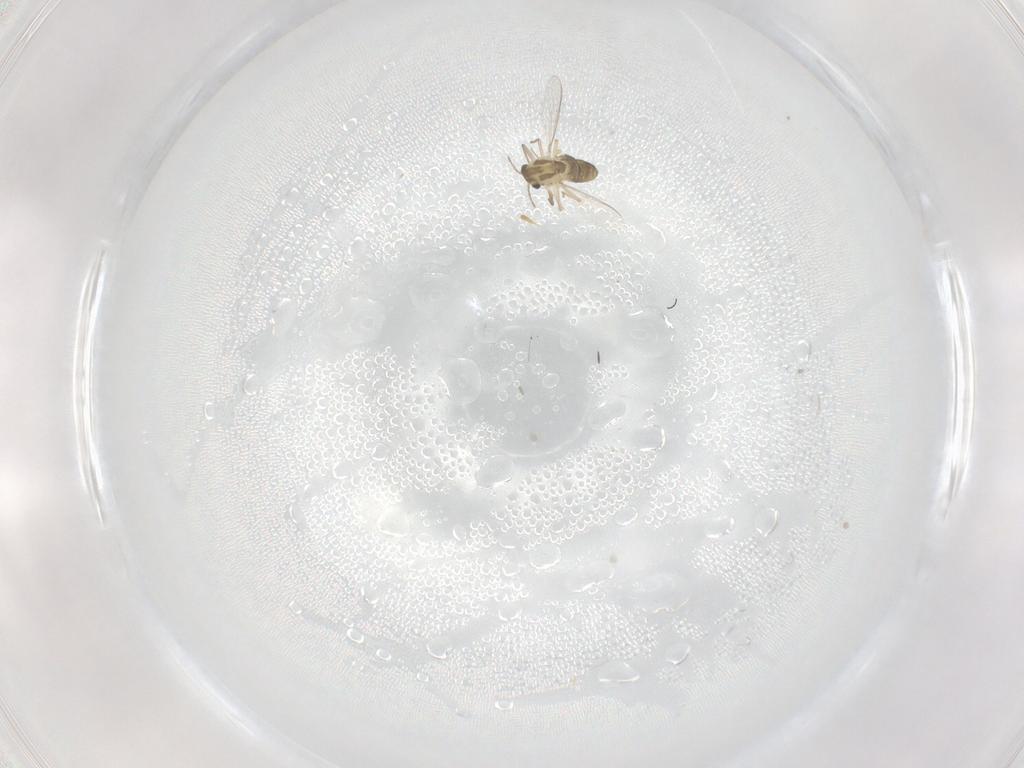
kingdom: Animalia
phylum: Arthropoda
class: Insecta
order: Diptera
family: Chironomidae
